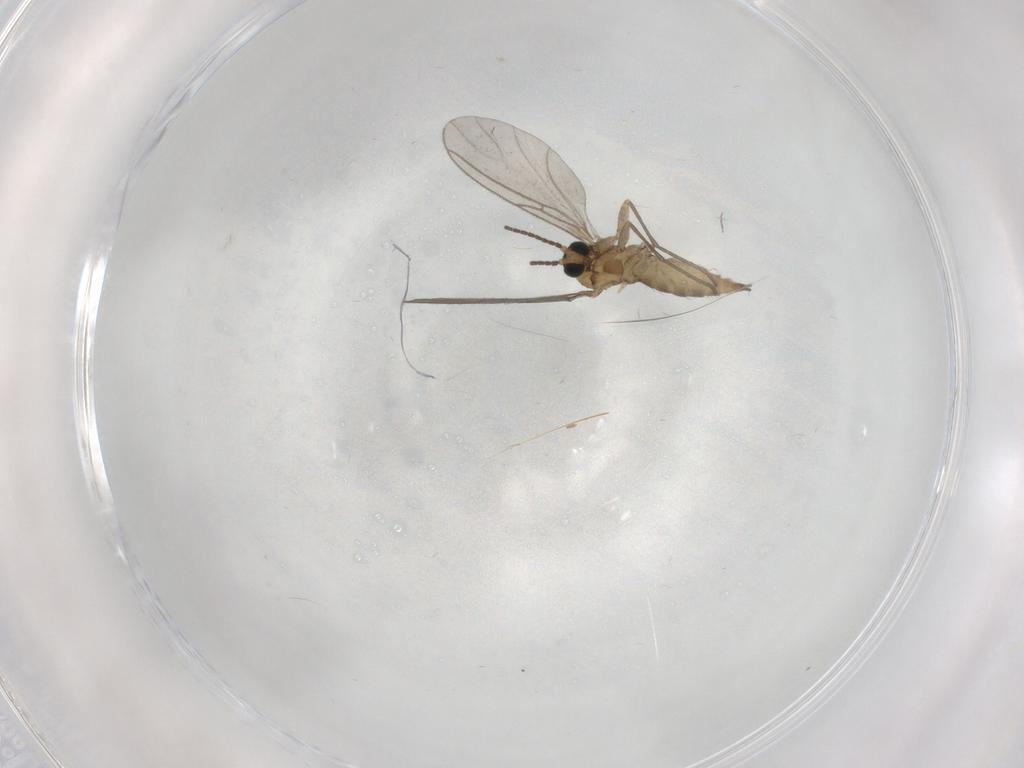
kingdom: Animalia
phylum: Arthropoda
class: Insecta
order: Diptera
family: Sciaridae
